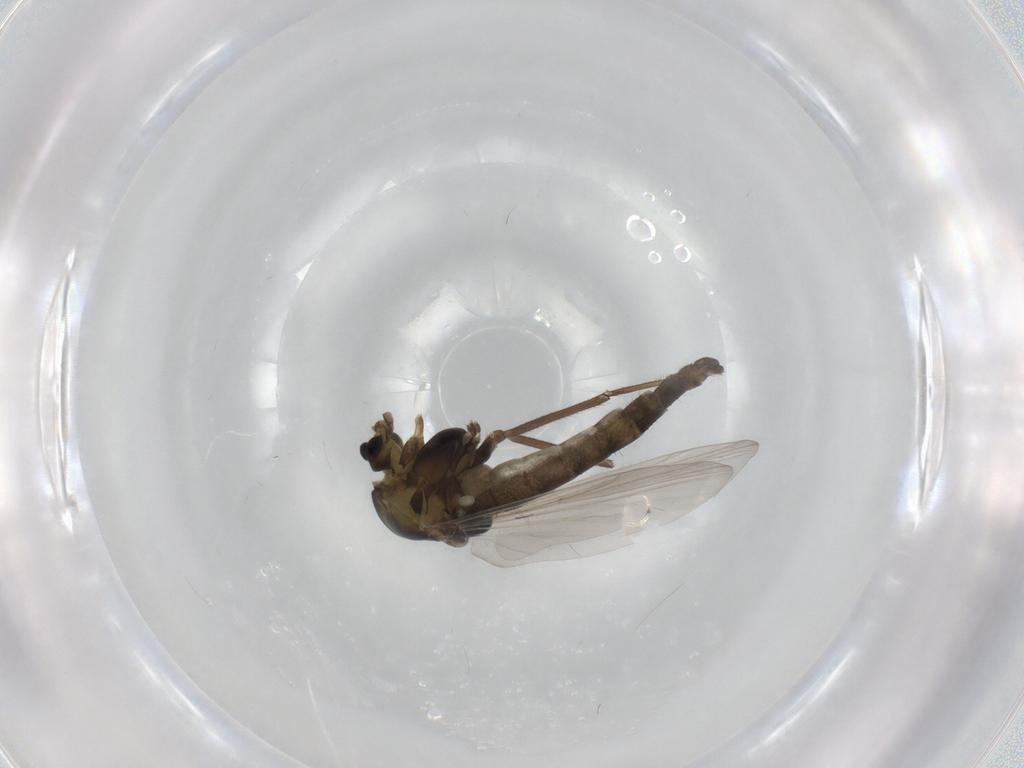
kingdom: Animalia
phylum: Arthropoda
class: Insecta
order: Diptera
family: Chironomidae
